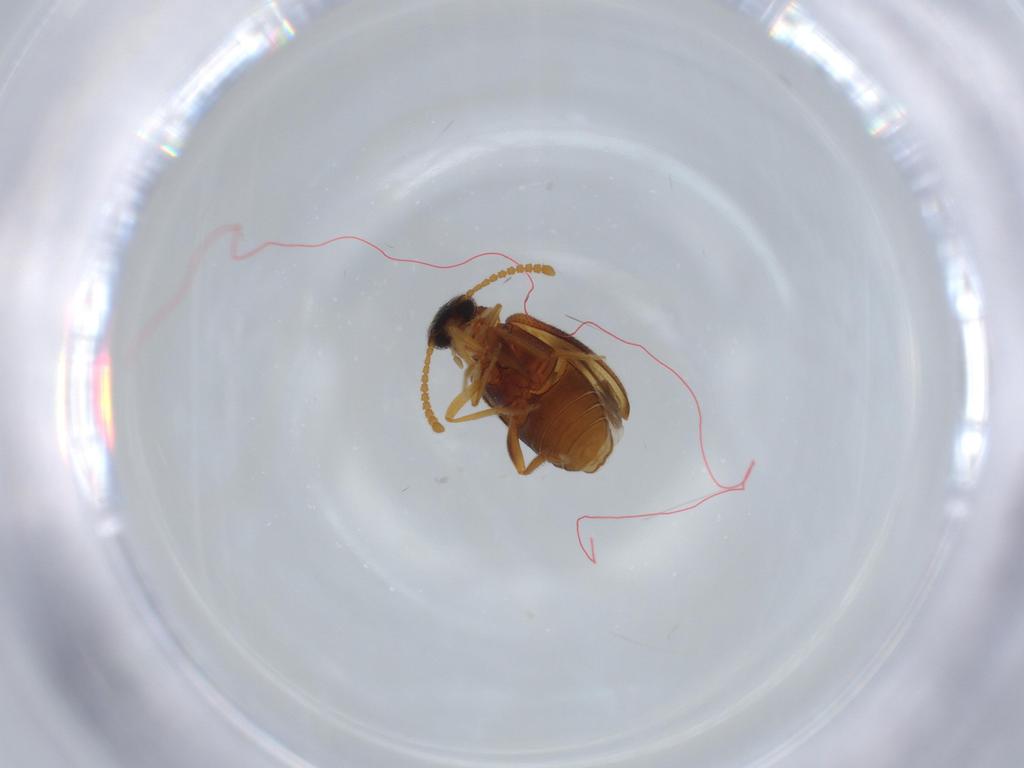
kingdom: Animalia
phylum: Arthropoda
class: Insecta
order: Coleoptera
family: Aderidae
